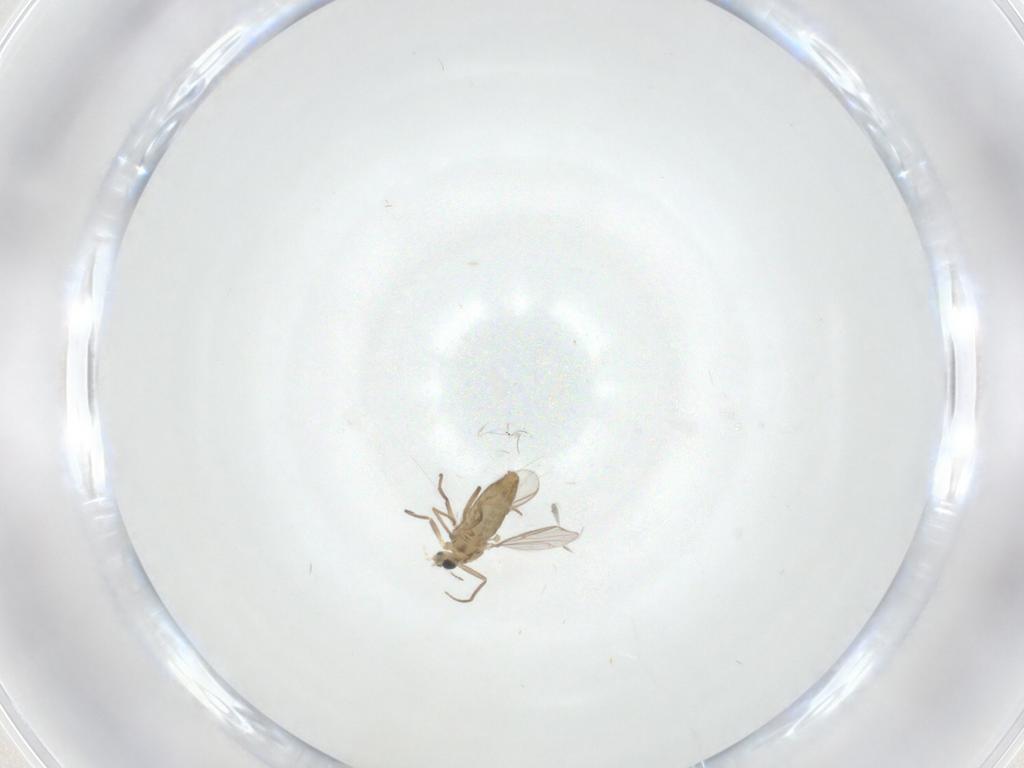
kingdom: Animalia
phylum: Arthropoda
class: Insecta
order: Diptera
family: Chironomidae
